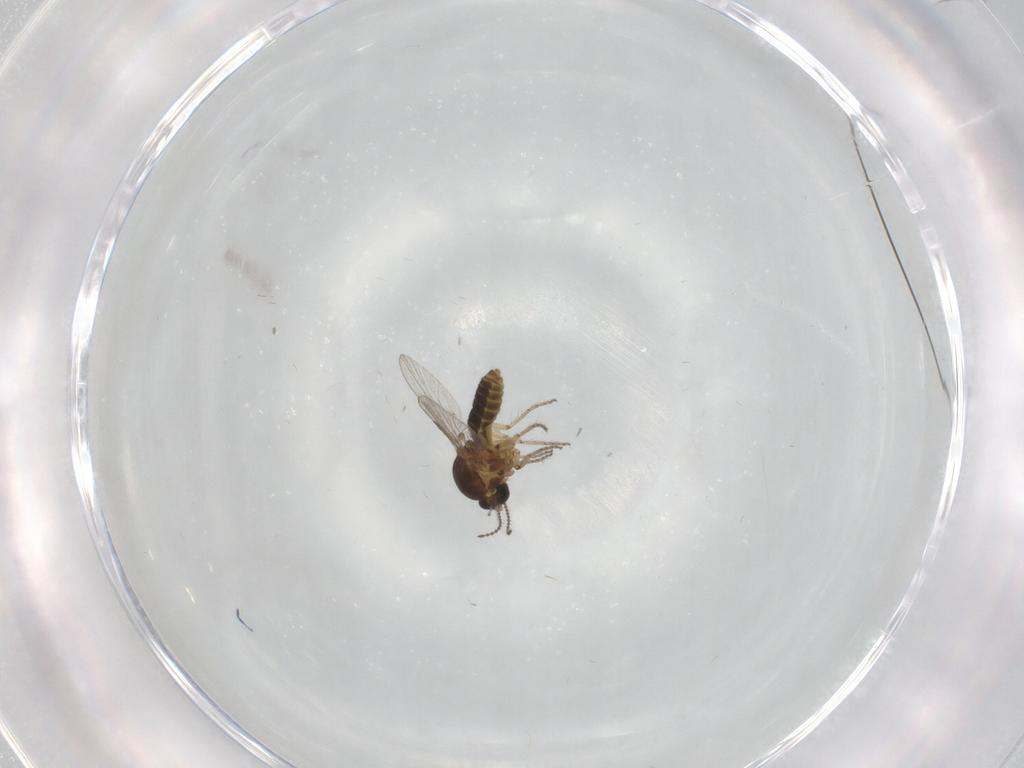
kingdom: Animalia
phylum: Arthropoda
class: Insecta
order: Diptera
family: Ceratopogonidae
